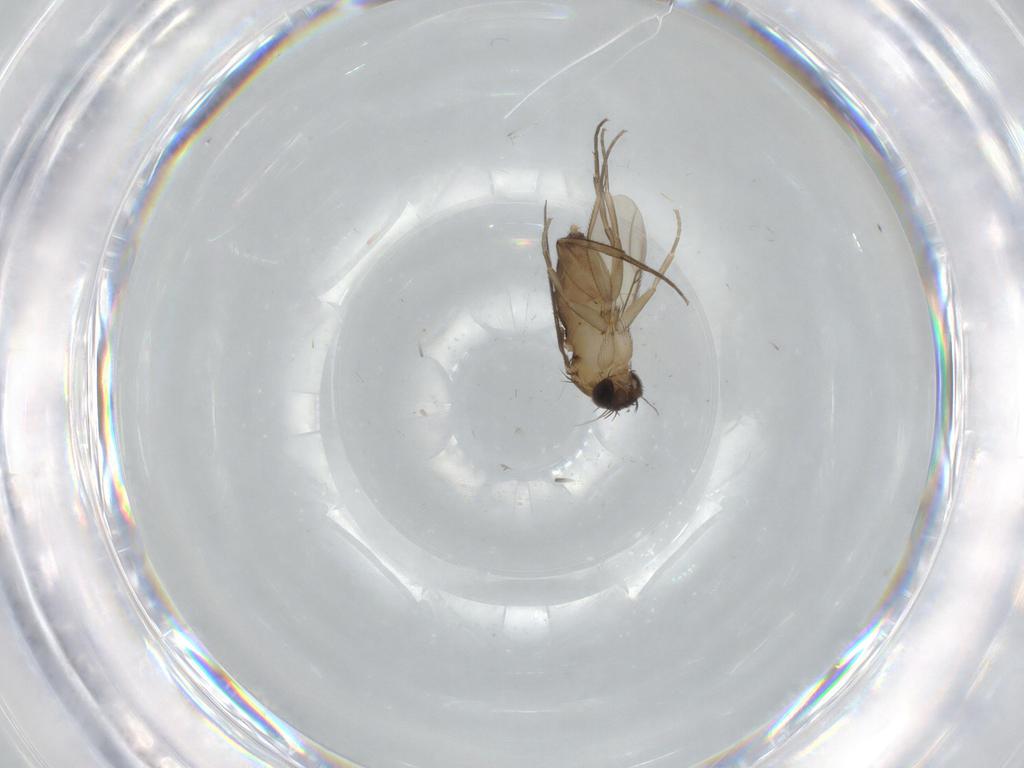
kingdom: Animalia
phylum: Arthropoda
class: Insecta
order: Diptera
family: Phoridae
